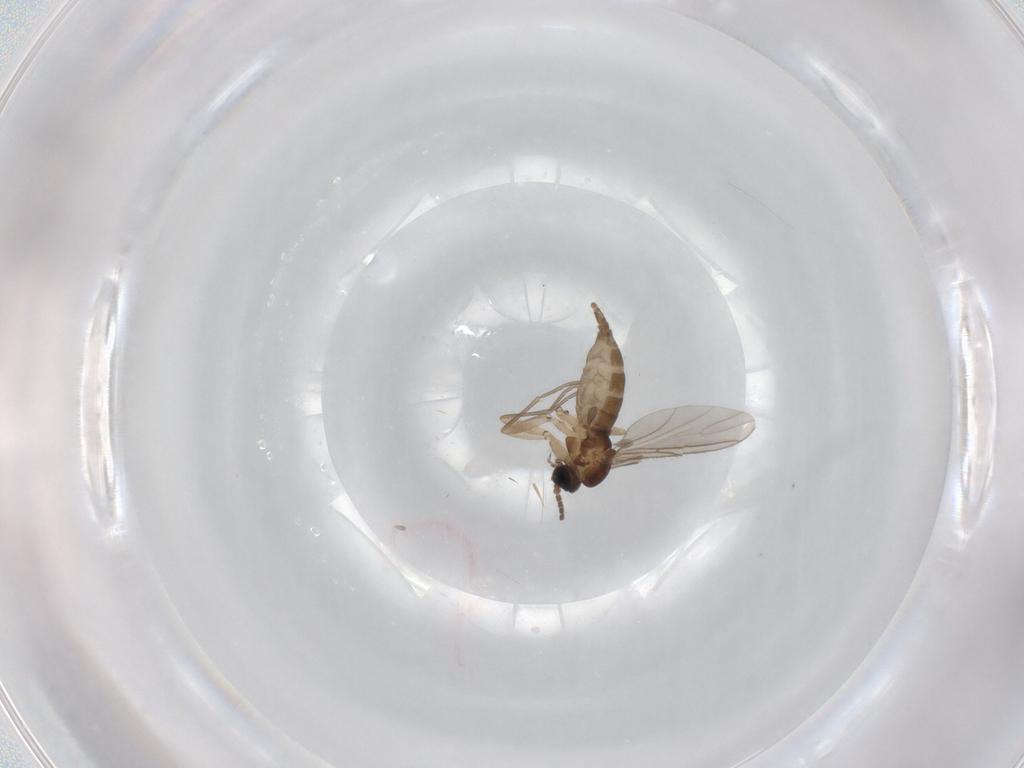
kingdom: Animalia
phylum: Arthropoda
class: Insecta
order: Diptera
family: Sciaridae
